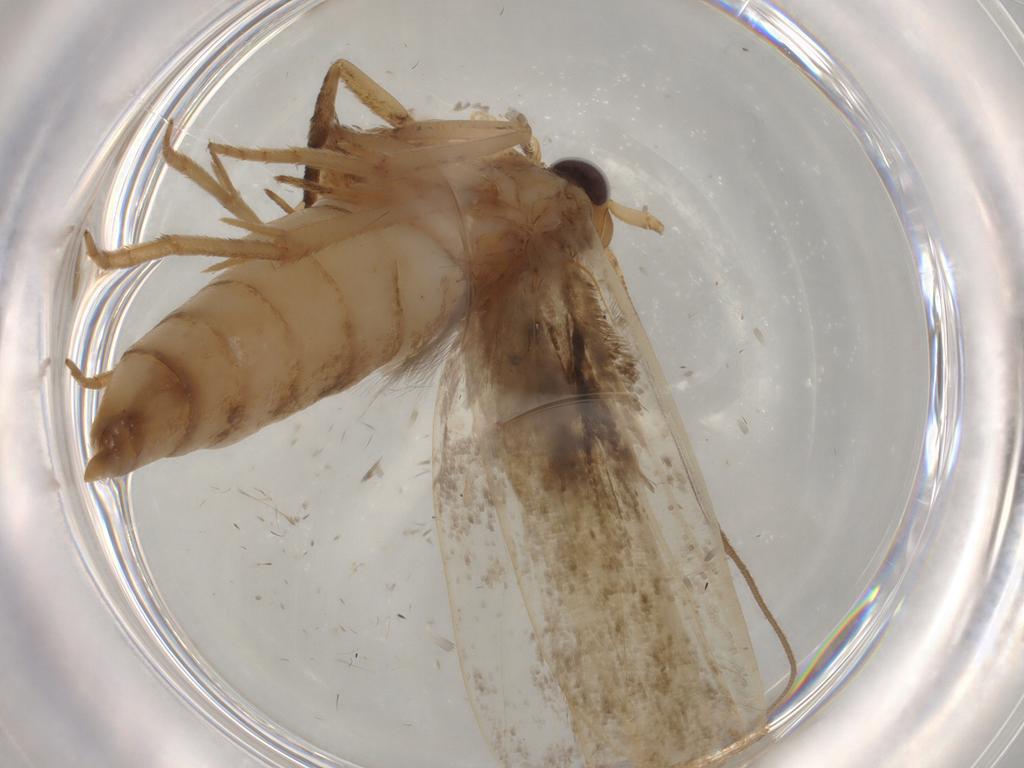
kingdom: Animalia
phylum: Arthropoda
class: Insecta
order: Lepidoptera
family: Yponomeutidae
